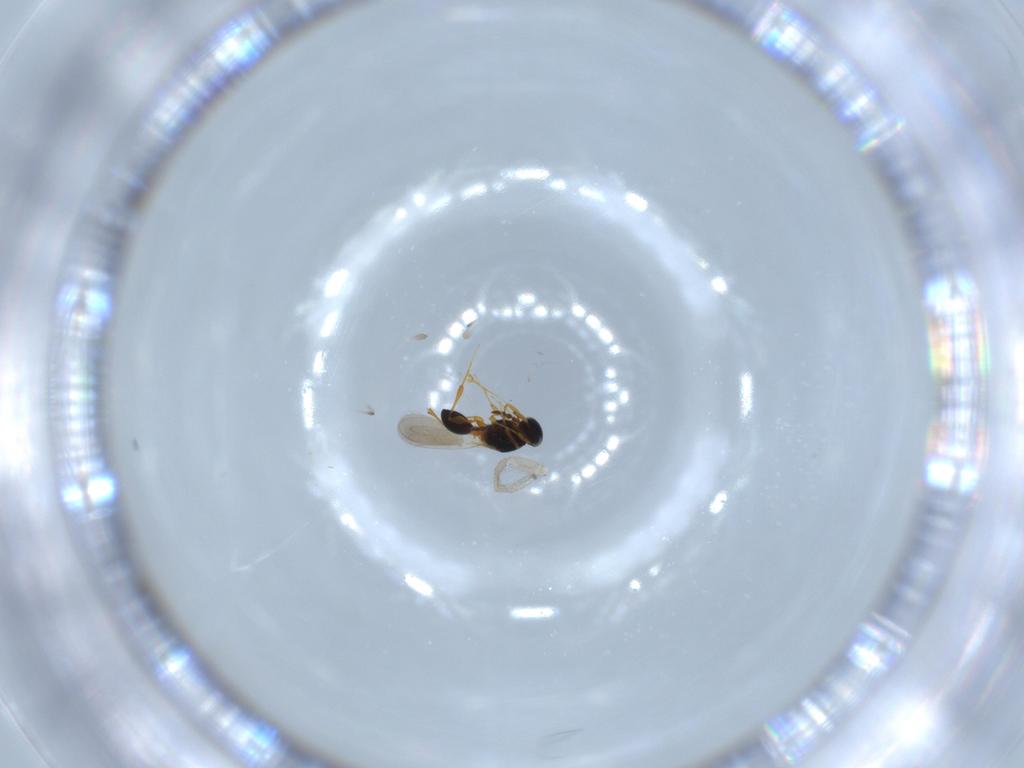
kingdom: Animalia
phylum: Arthropoda
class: Insecta
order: Hymenoptera
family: Platygastridae
